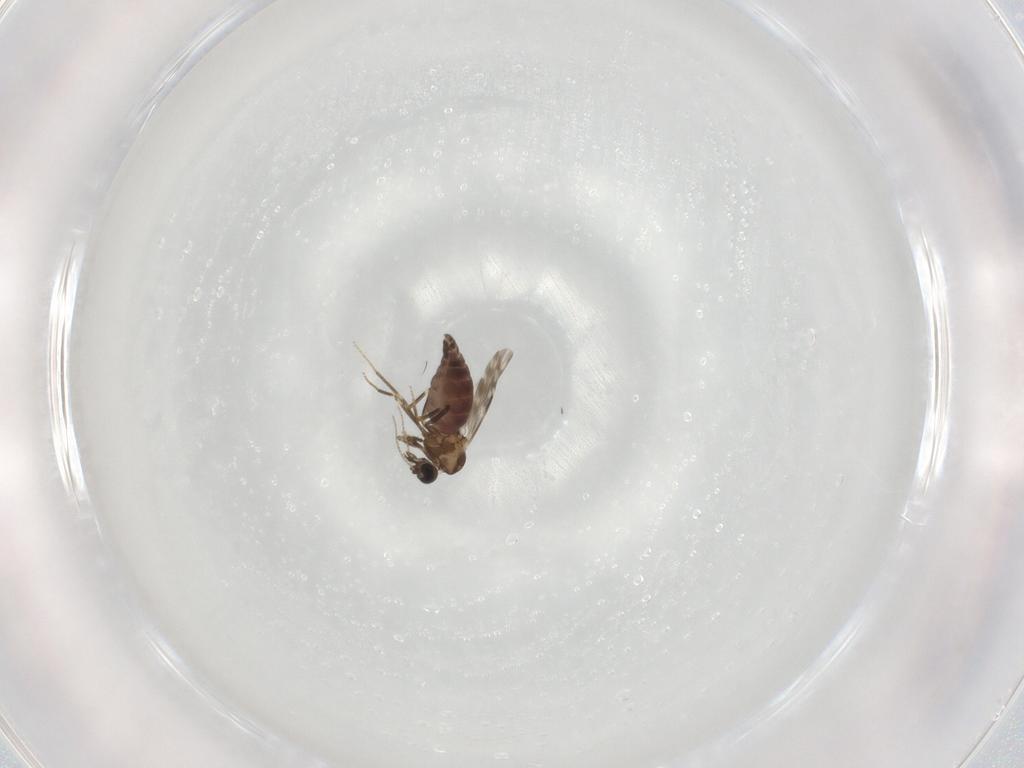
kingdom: Animalia
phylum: Arthropoda
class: Insecta
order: Diptera
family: Ceratopogonidae
